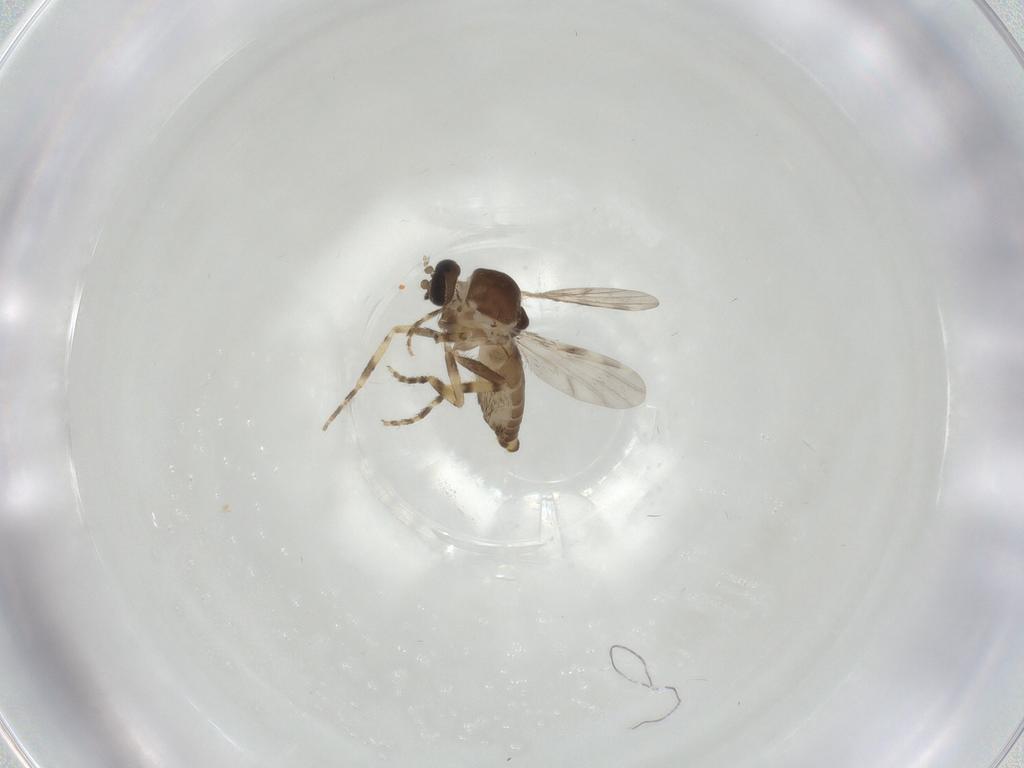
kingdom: Animalia
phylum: Arthropoda
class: Insecta
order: Diptera
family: Ceratopogonidae
